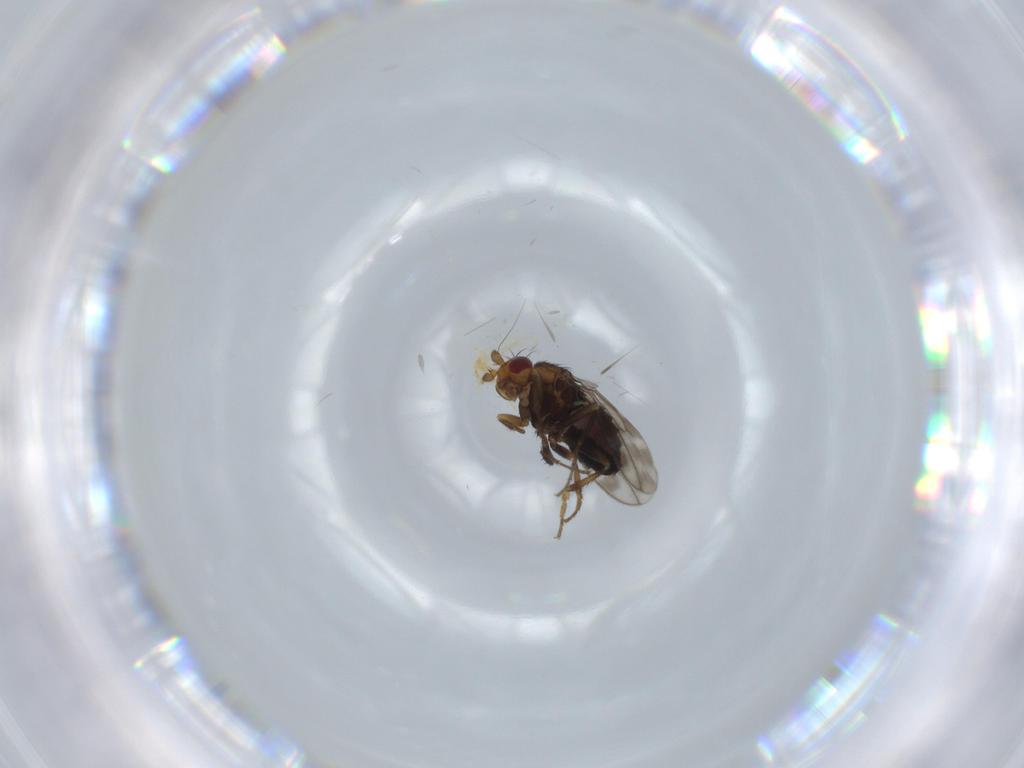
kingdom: Animalia
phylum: Arthropoda
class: Insecta
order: Diptera
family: Sphaeroceridae
